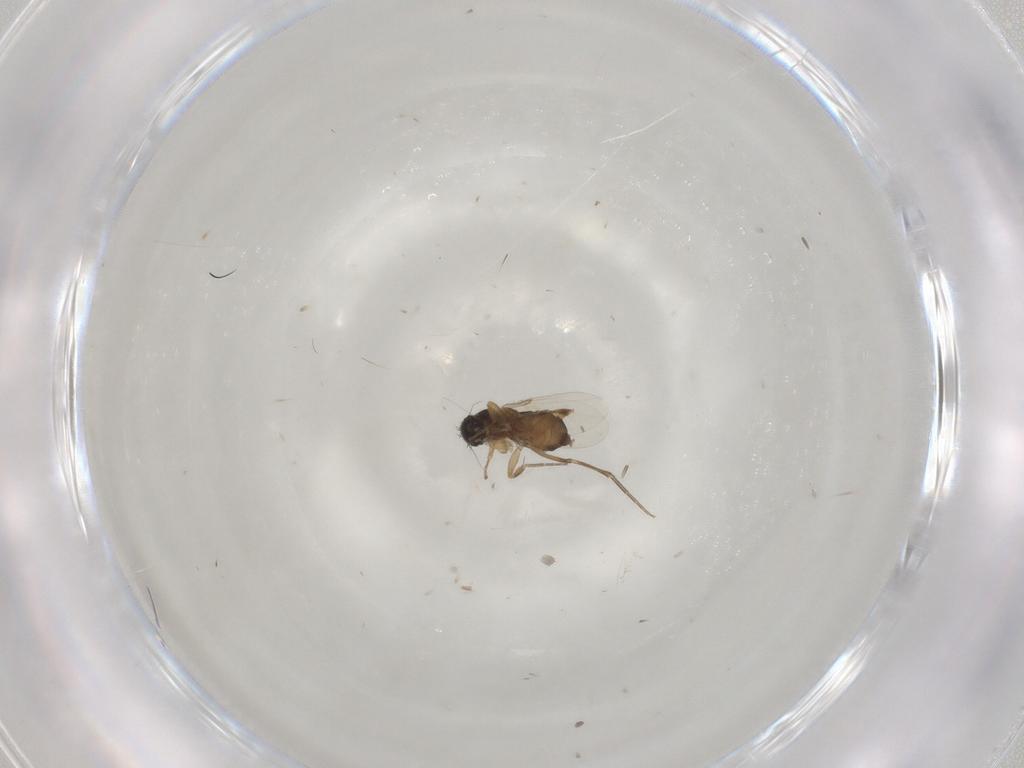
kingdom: Animalia
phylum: Arthropoda
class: Insecta
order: Diptera
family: Phoridae
